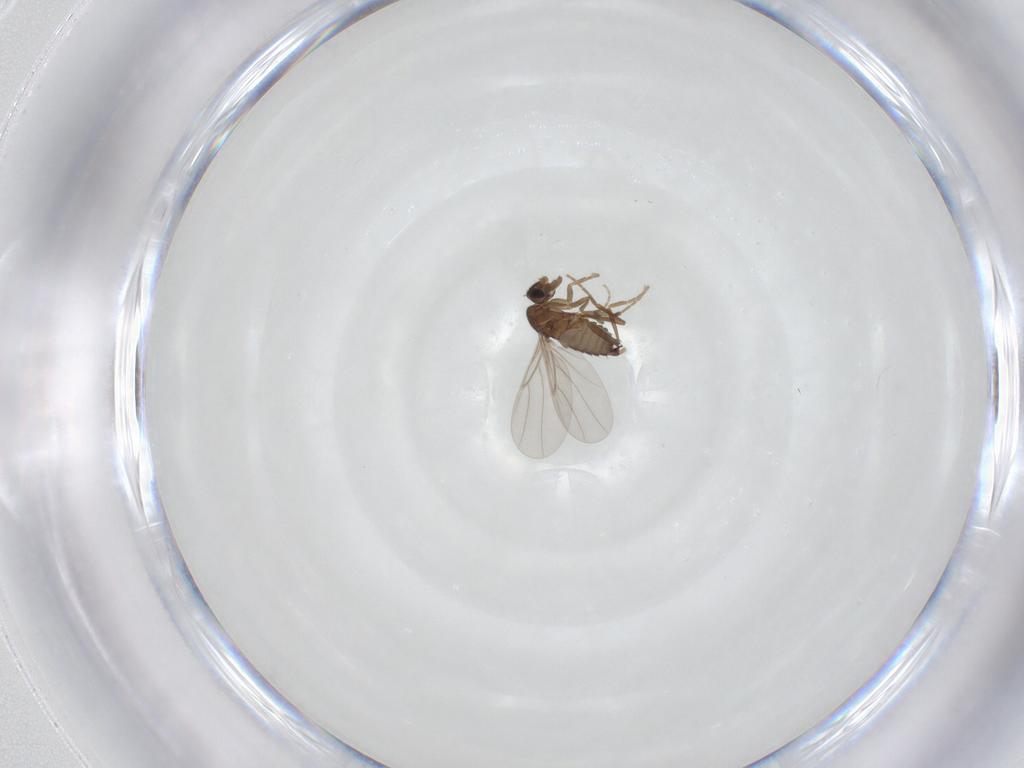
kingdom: Animalia
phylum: Arthropoda
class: Insecta
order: Diptera
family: Phoridae
